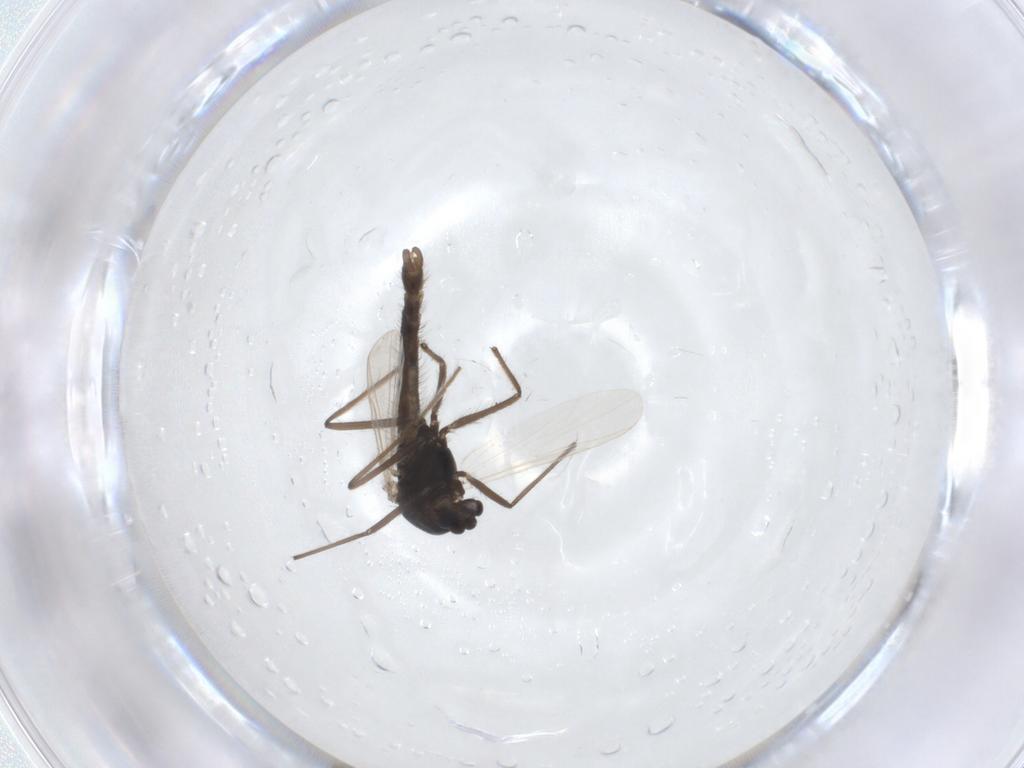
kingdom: Animalia
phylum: Arthropoda
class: Insecta
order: Diptera
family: Chironomidae
